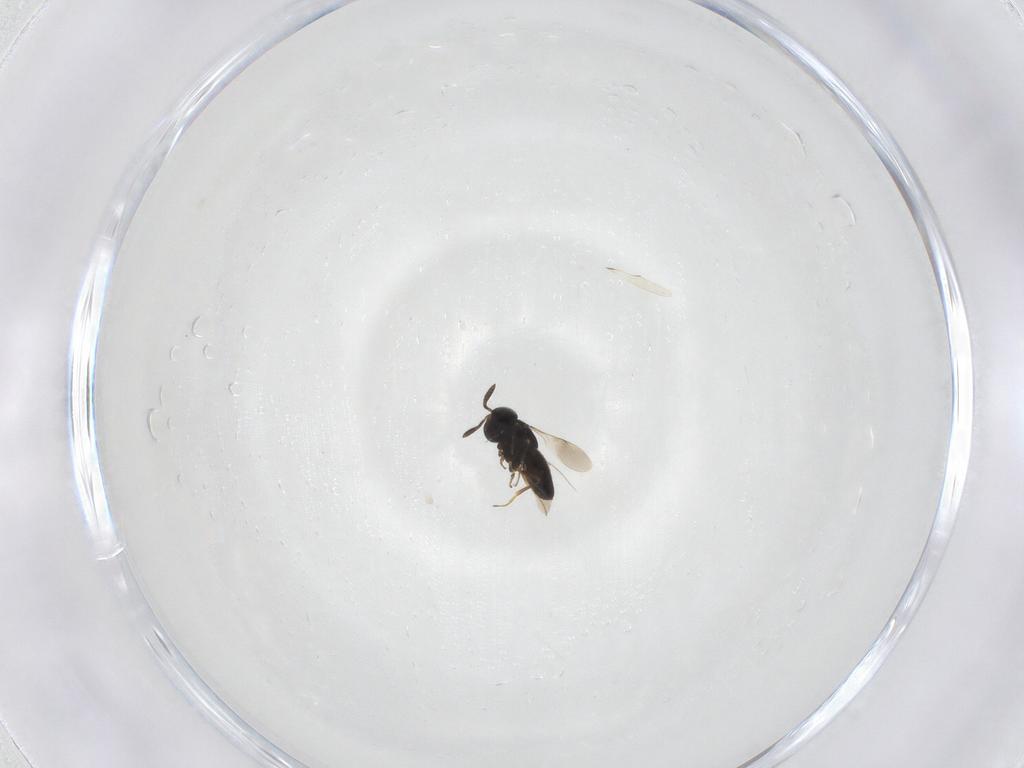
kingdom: Animalia
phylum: Arthropoda
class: Insecta
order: Hymenoptera
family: Scelionidae
